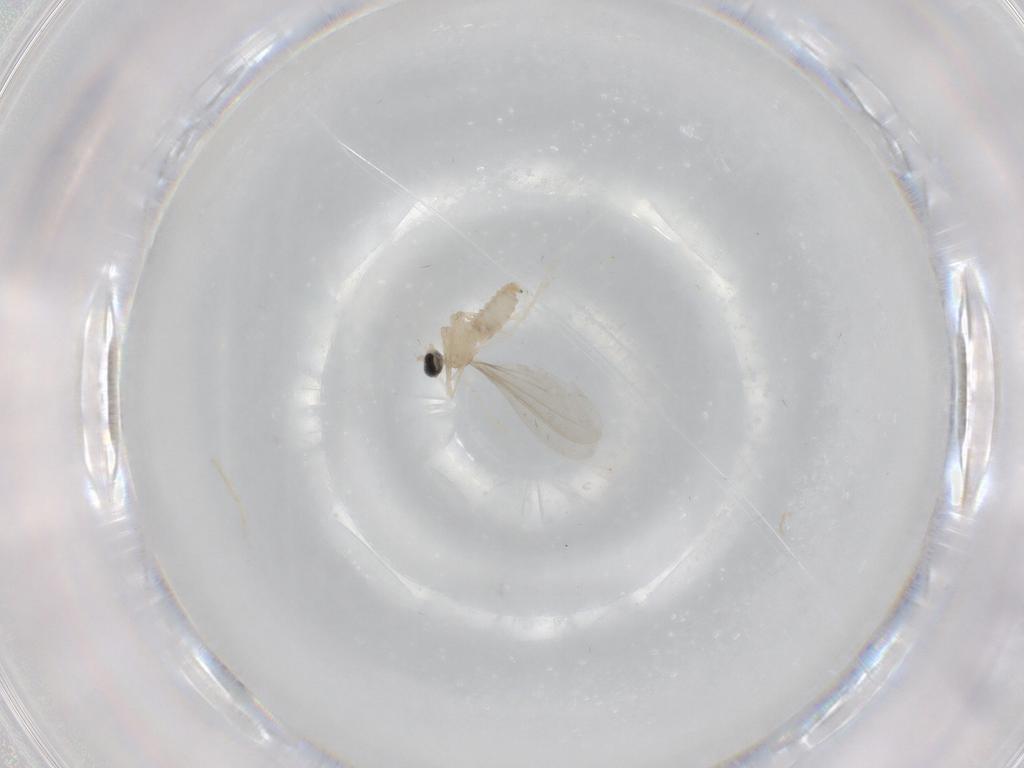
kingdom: Animalia
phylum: Arthropoda
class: Insecta
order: Diptera
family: Cecidomyiidae
